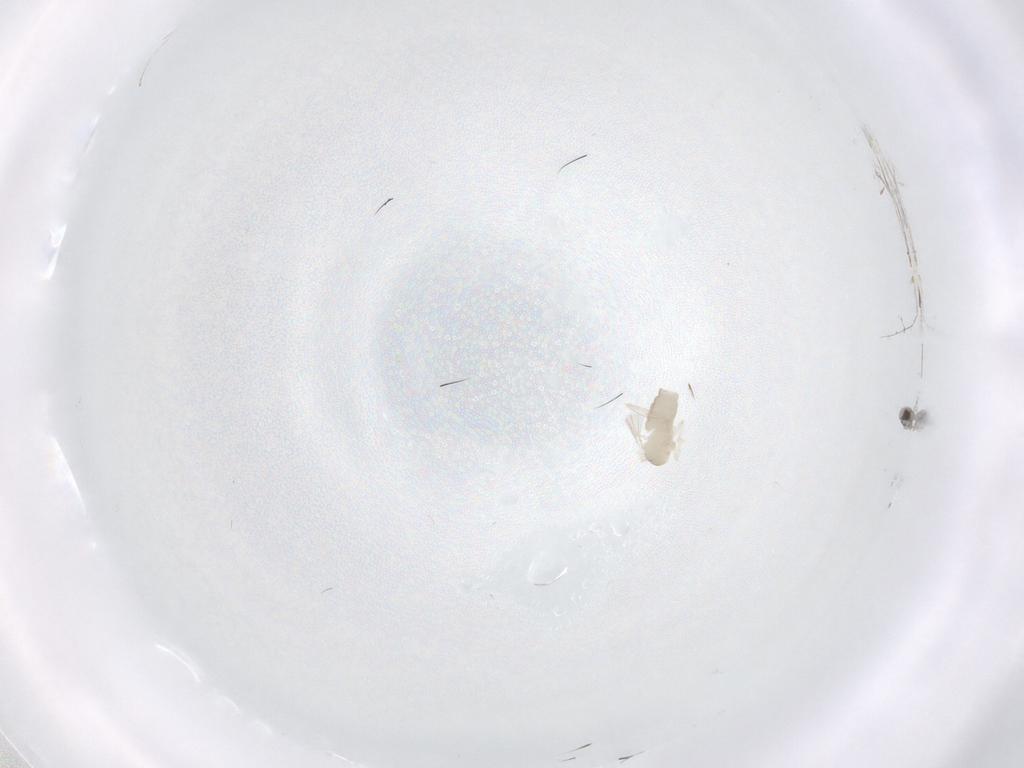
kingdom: Animalia
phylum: Arthropoda
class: Insecta
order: Diptera
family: Cecidomyiidae
